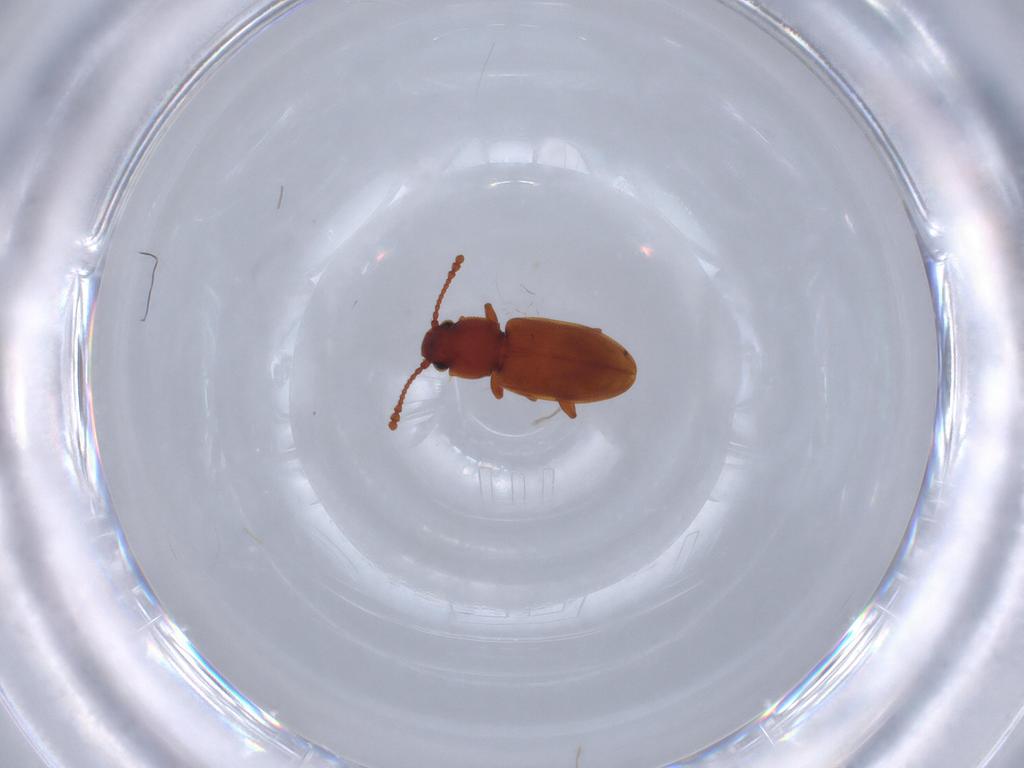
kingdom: Animalia
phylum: Arthropoda
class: Insecta
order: Coleoptera
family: Silvanidae
